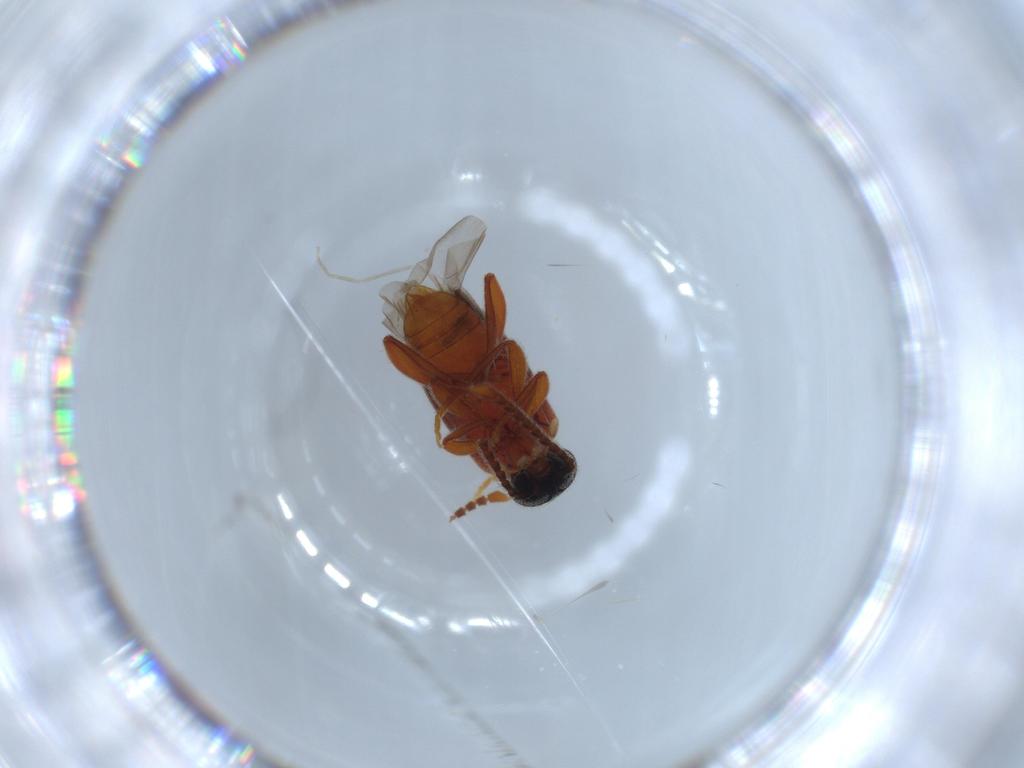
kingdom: Animalia
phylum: Arthropoda
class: Insecta
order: Coleoptera
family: Aderidae
